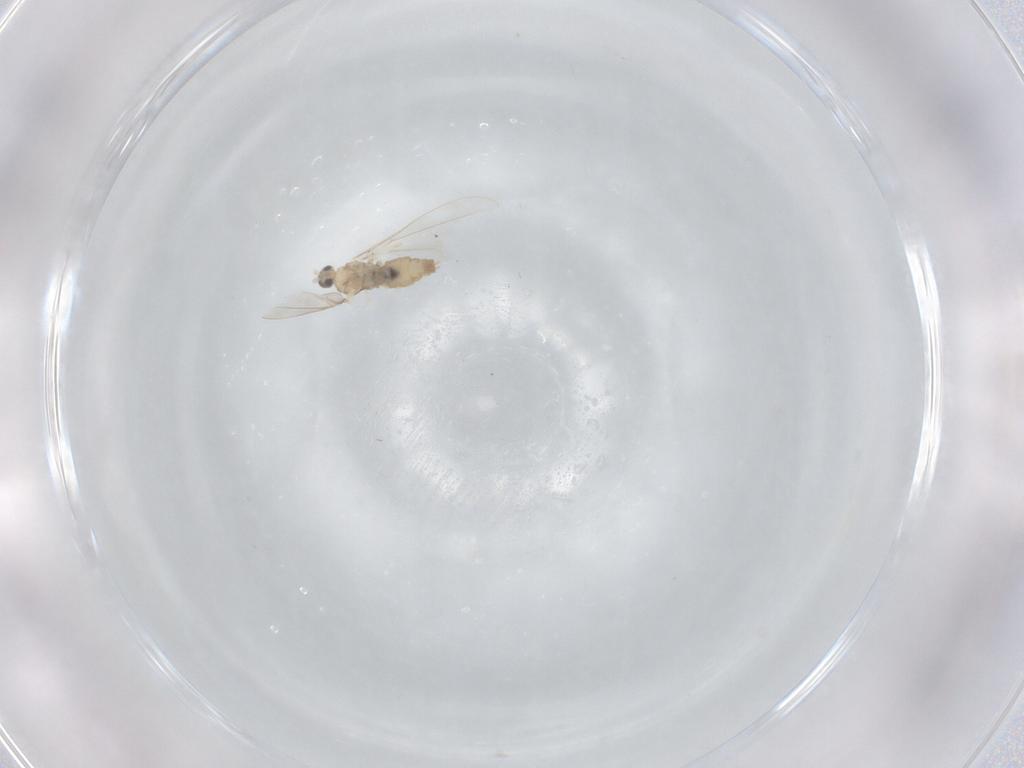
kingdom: Animalia
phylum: Arthropoda
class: Insecta
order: Diptera
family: Cecidomyiidae
